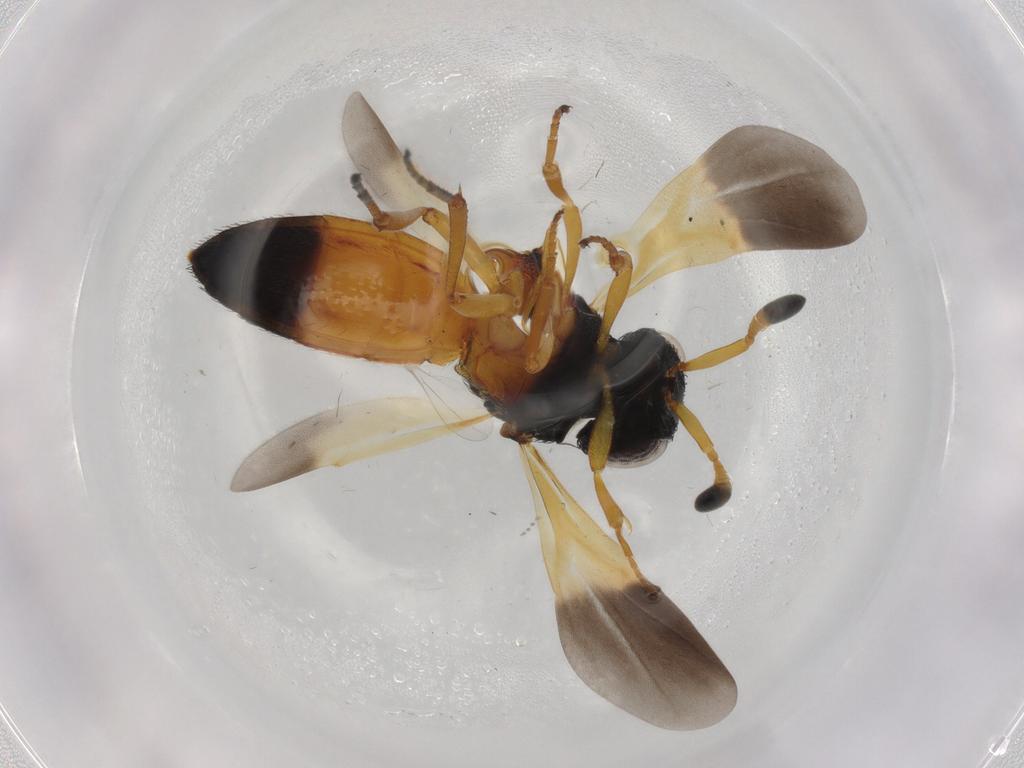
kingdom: Animalia
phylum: Arthropoda
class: Insecta
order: Hymenoptera
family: Scelionidae
